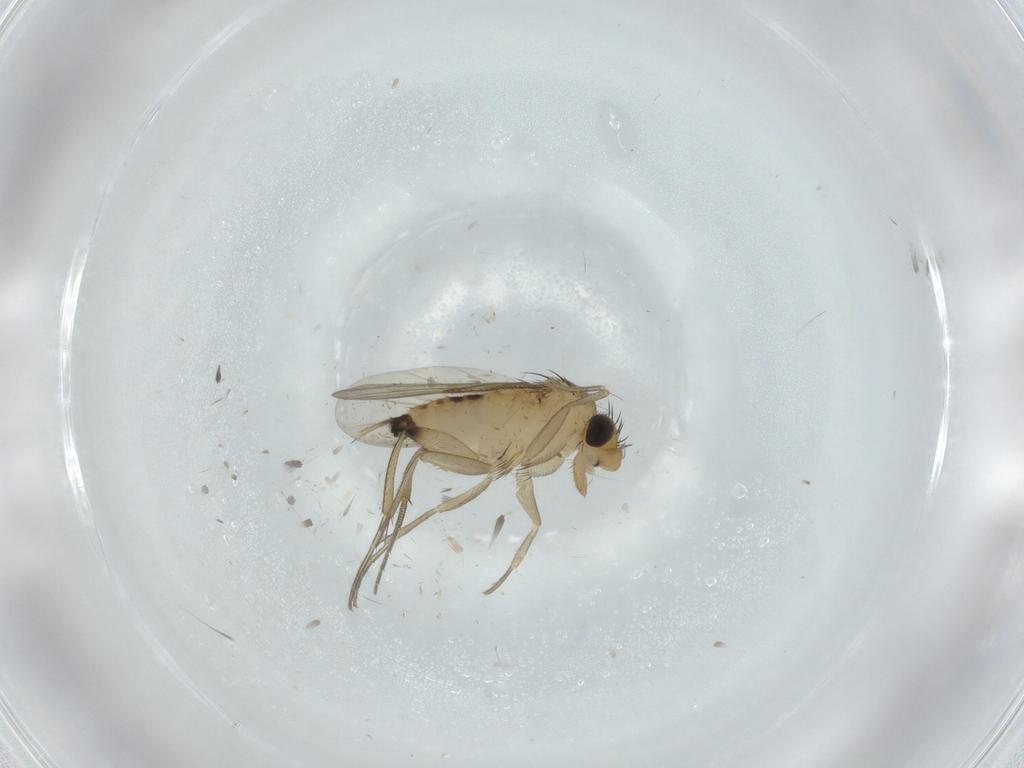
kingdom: Animalia
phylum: Arthropoda
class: Insecta
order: Diptera
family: Phoridae
